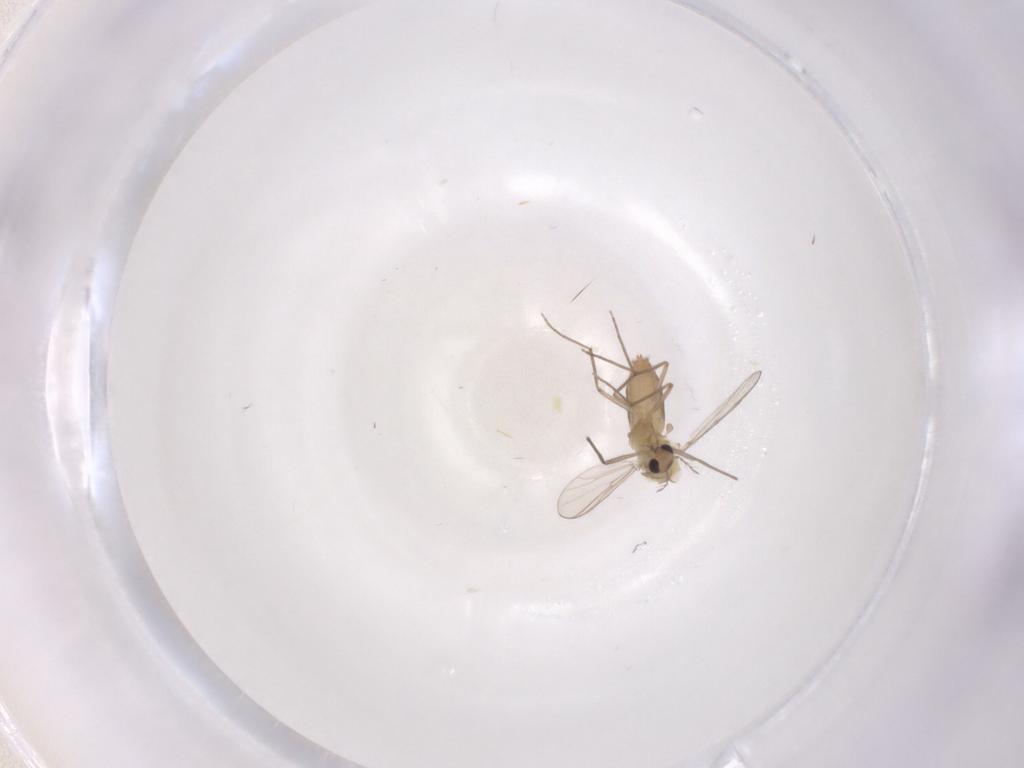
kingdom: Animalia
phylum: Arthropoda
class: Insecta
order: Diptera
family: Chironomidae
